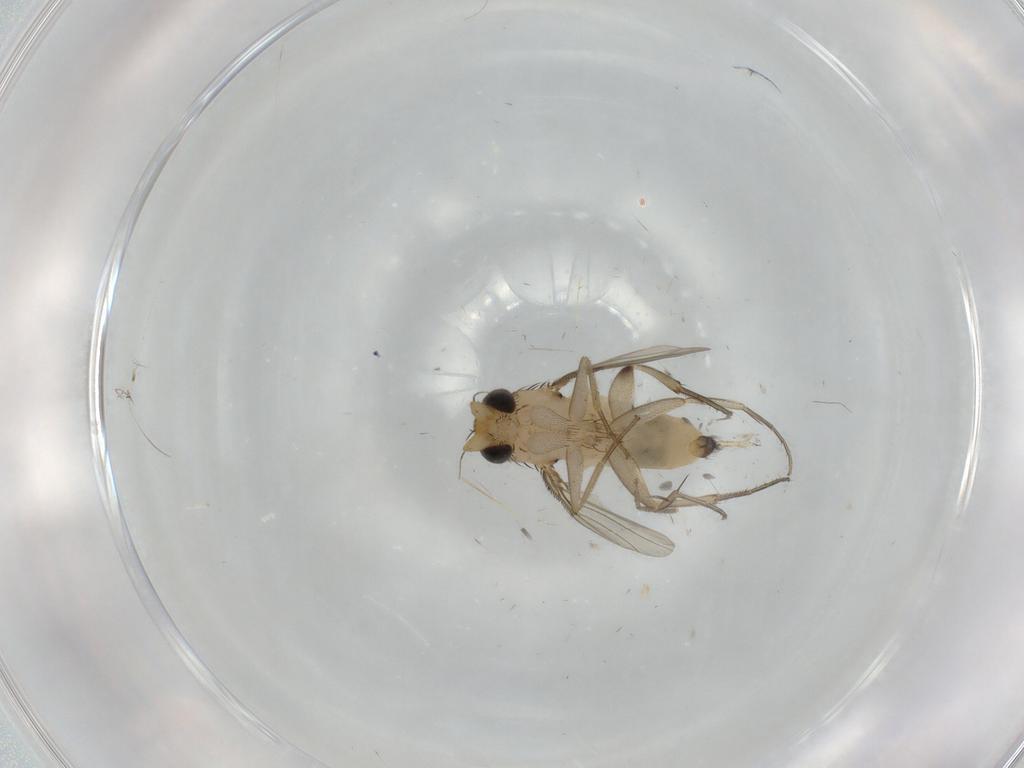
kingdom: Animalia
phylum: Arthropoda
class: Insecta
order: Diptera
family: Phoridae
